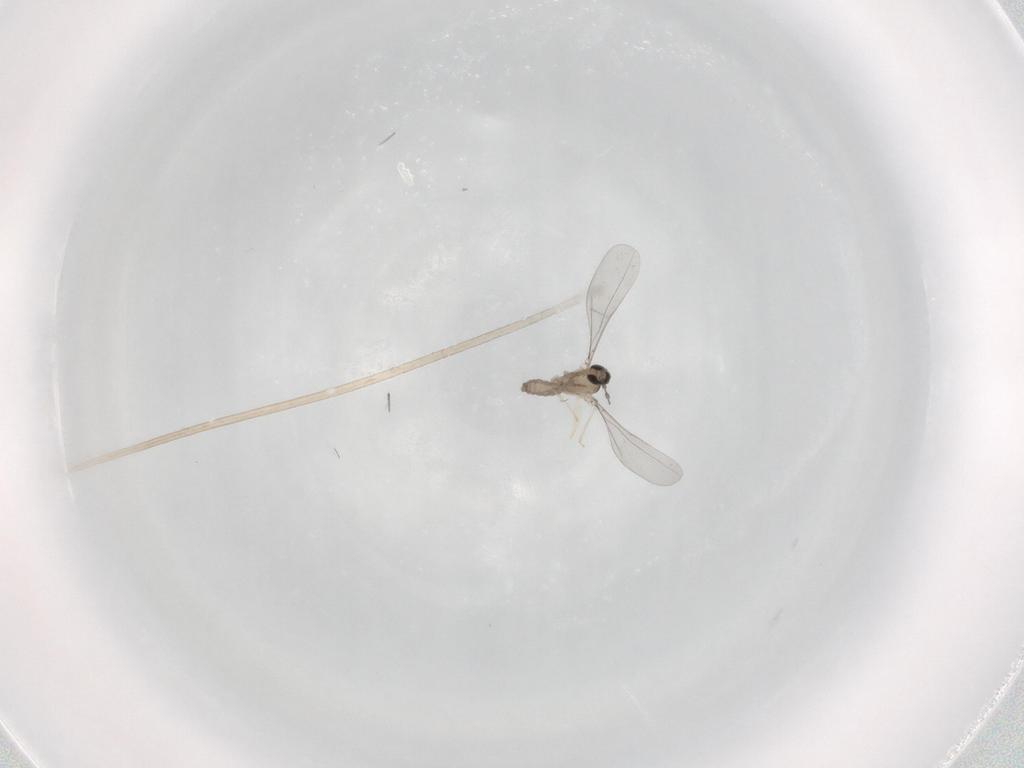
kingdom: Animalia
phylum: Arthropoda
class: Insecta
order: Diptera
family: Cecidomyiidae
